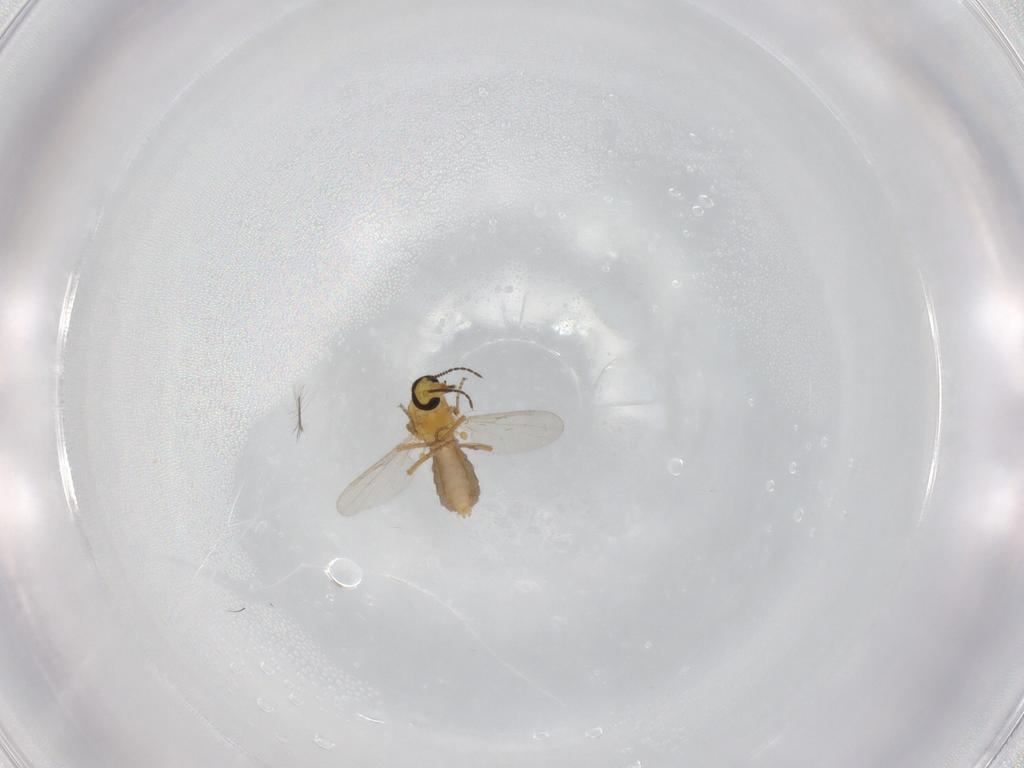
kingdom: Animalia
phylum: Arthropoda
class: Insecta
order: Diptera
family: Ceratopogonidae
